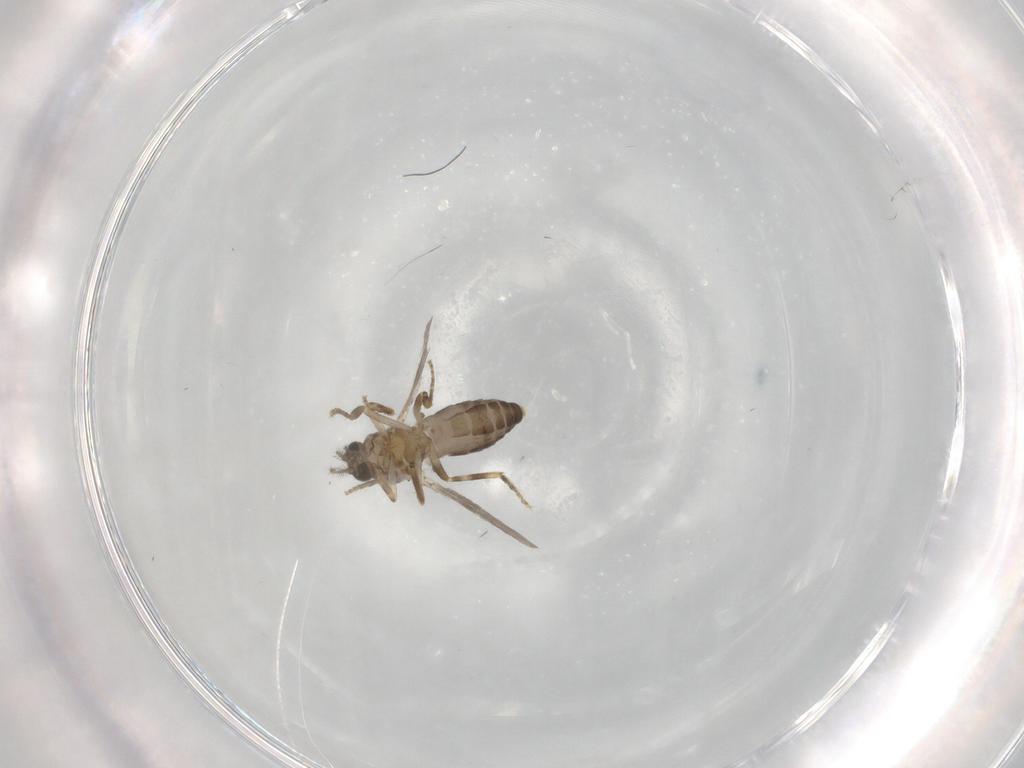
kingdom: Animalia
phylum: Arthropoda
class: Insecta
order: Diptera
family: Ceratopogonidae
